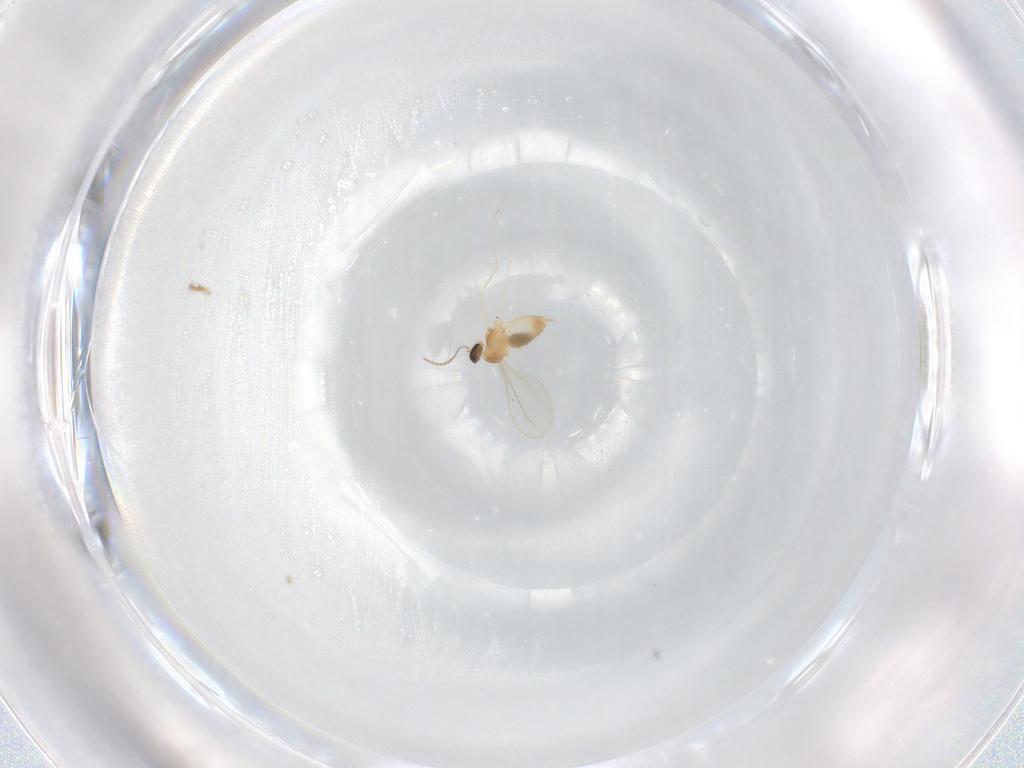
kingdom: Animalia
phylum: Arthropoda
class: Insecta
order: Diptera
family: Cecidomyiidae
